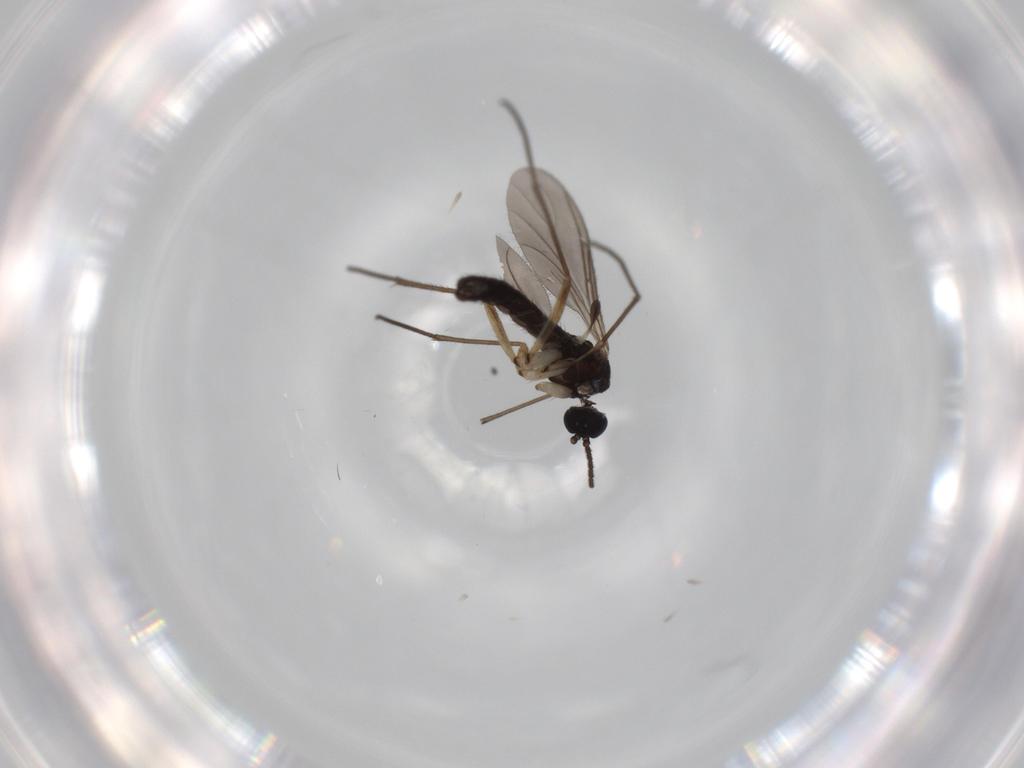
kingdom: Animalia
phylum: Arthropoda
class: Insecta
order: Diptera
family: Sciaridae
